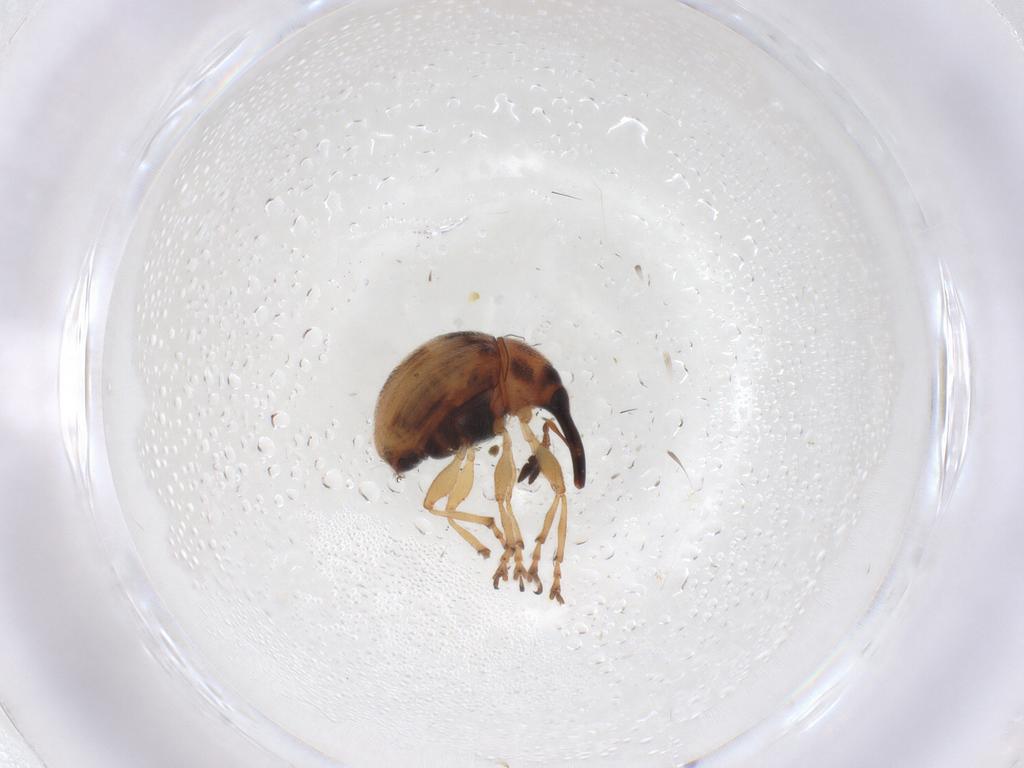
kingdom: Animalia
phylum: Arthropoda
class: Insecta
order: Coleoptera
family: Brentidae
